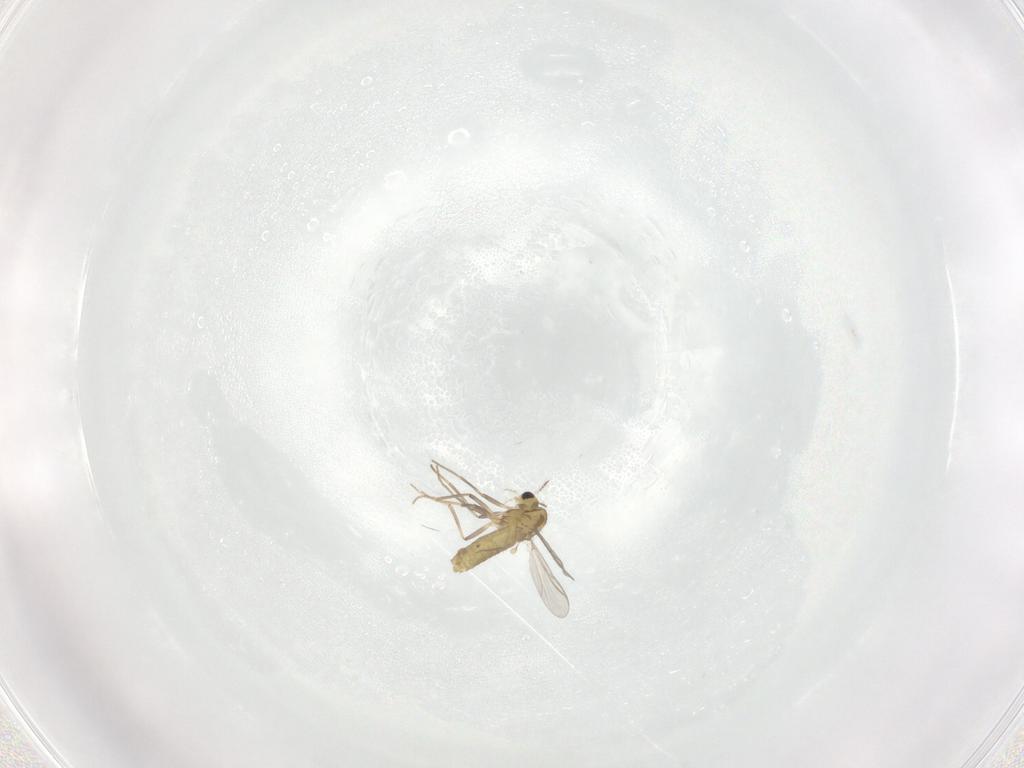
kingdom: Animalia
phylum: Arthropoda
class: Insecta
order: Diptera
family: Chironomidae
